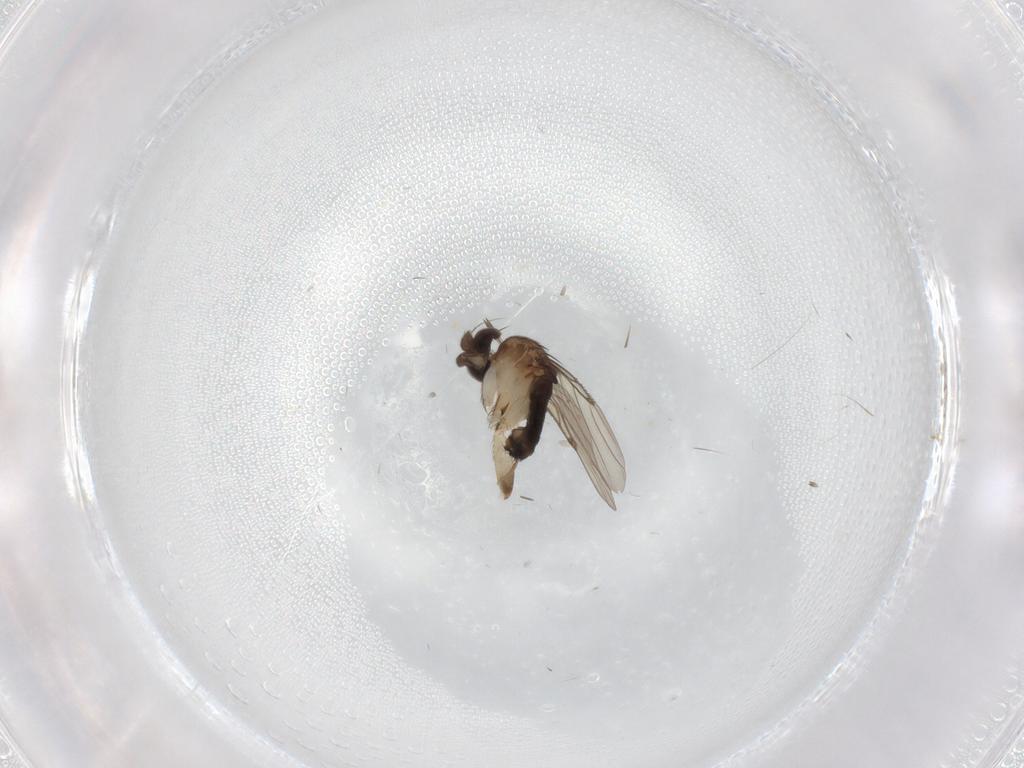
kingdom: Animalia
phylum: Arthropoda
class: Insecta
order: Diptera
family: Phoridae
